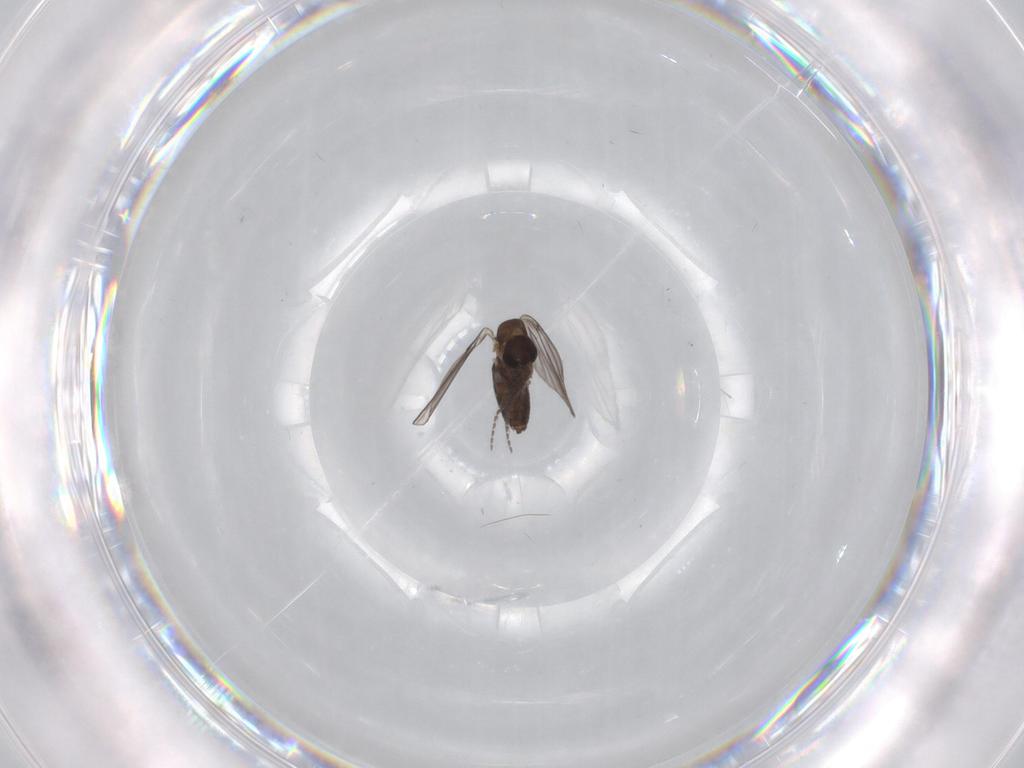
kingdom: Animalia
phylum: Arthropoda
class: Insecta
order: Diptera
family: Psychodidae
